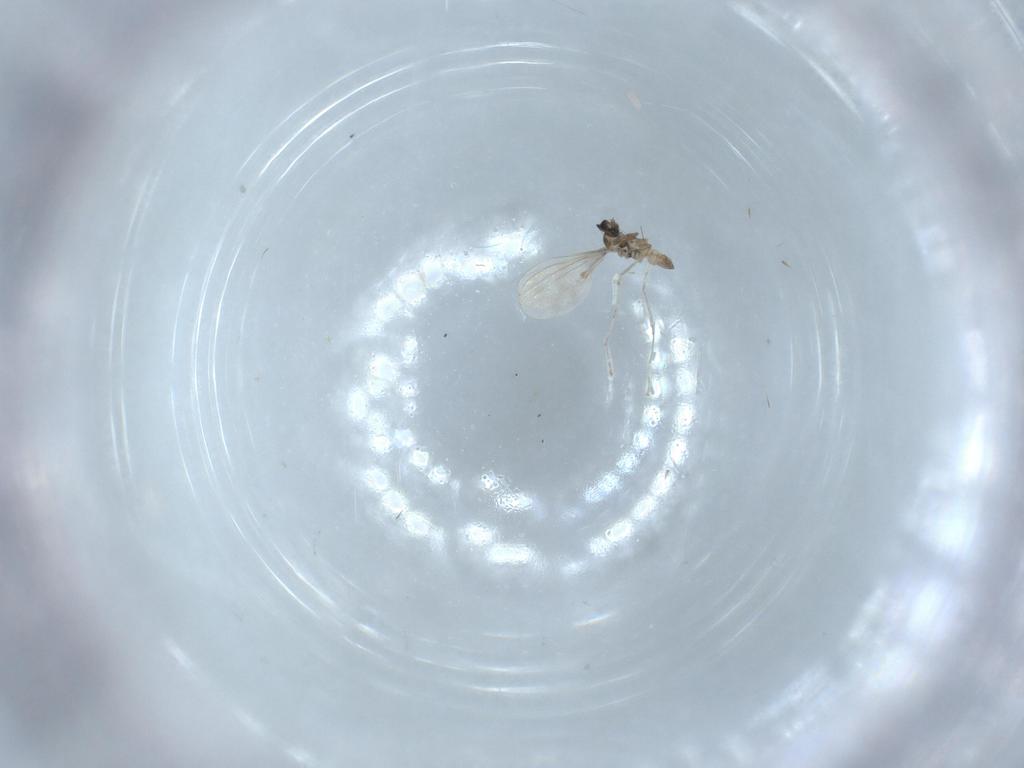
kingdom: Animalia
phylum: Arthropoda
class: Insecta
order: Diptera
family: Cecidomyiidae
